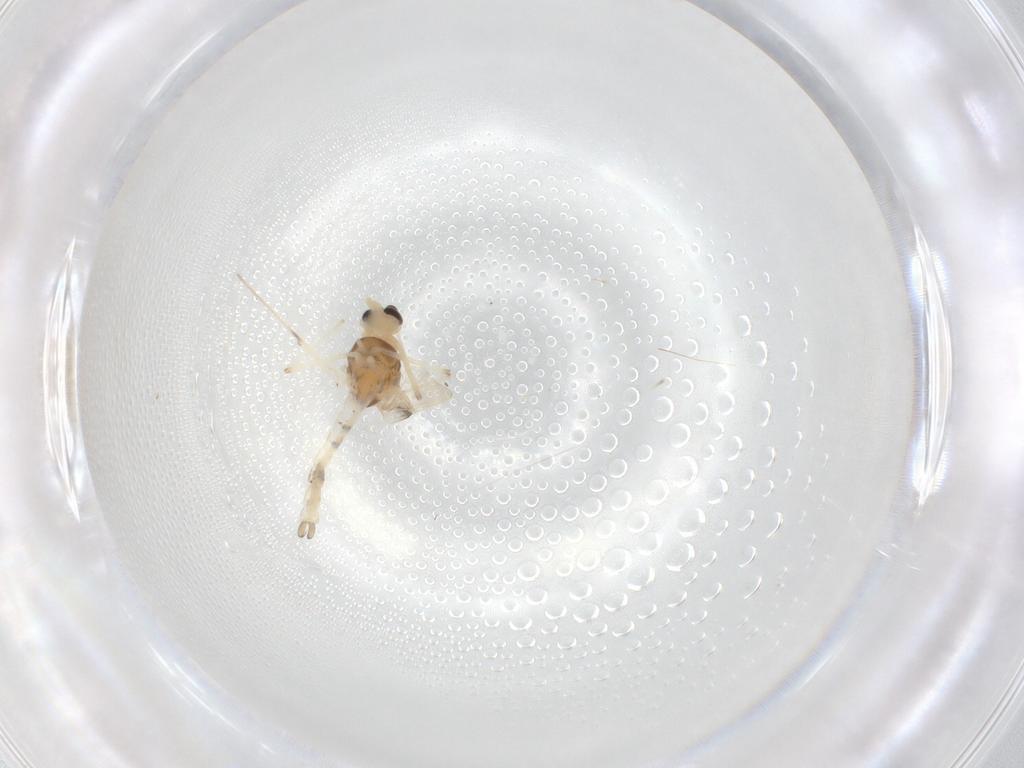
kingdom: Animalia
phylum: Arthropoda
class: Insecta
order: Diptera
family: Chironomidae
